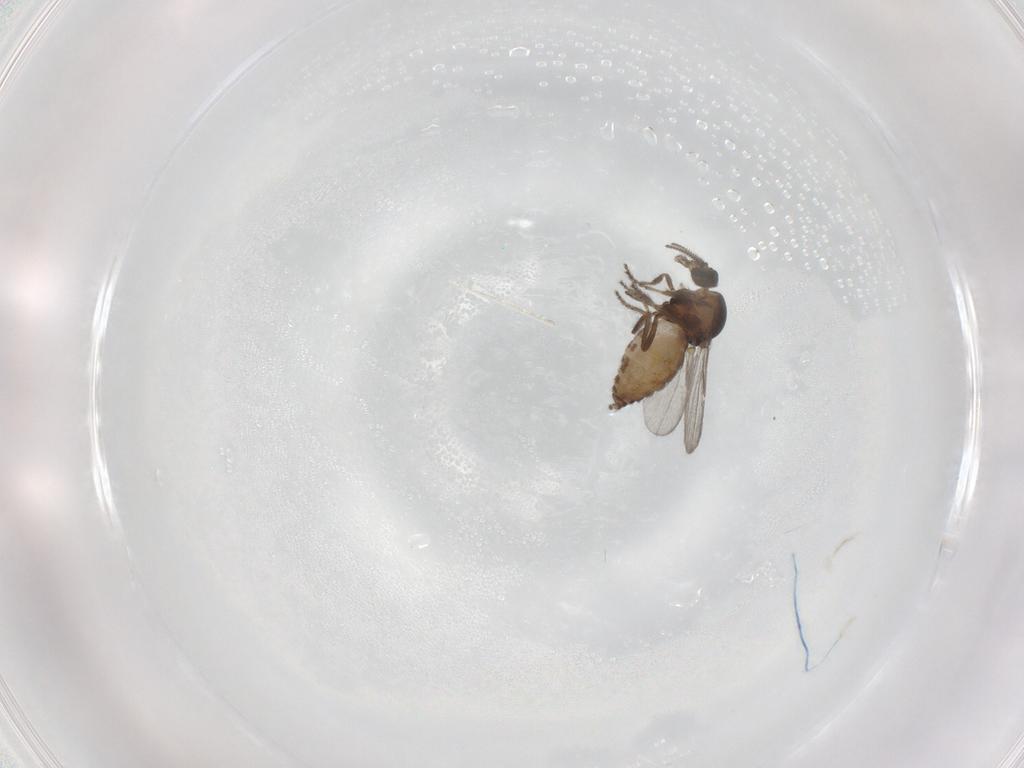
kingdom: Animalia
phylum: Arthropoda
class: Insecta
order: Diptera
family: Ceratopogonidae
